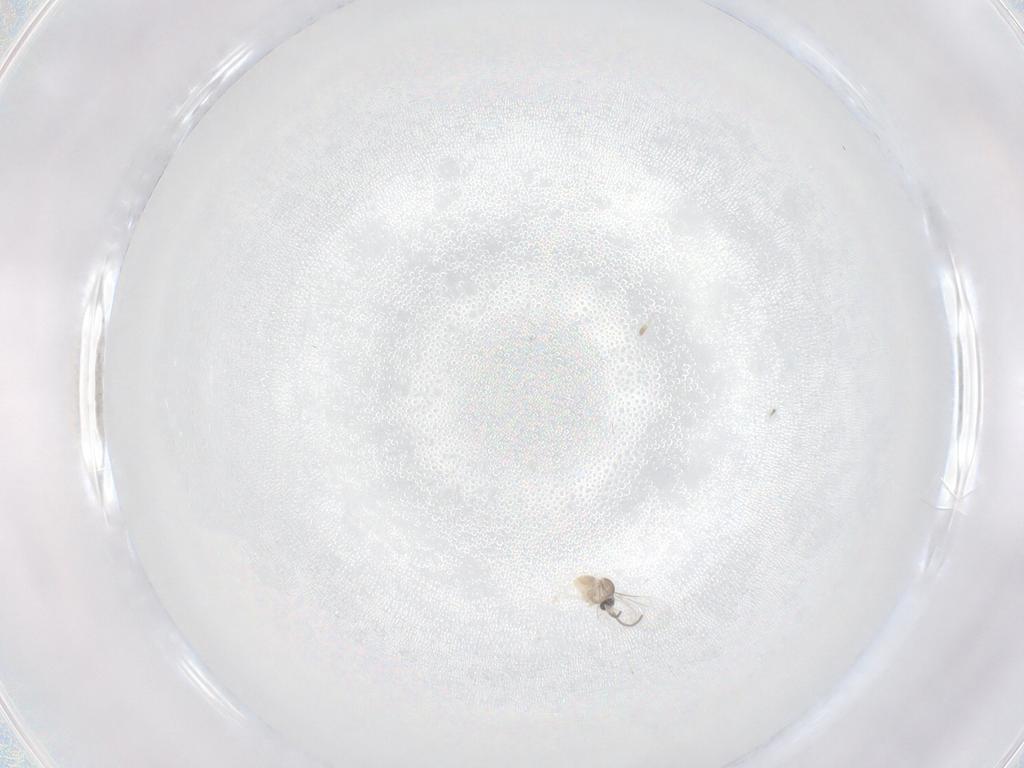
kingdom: Animalia
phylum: Arthropoda
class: Insecta
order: Diptera
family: Cecidomyiidae
